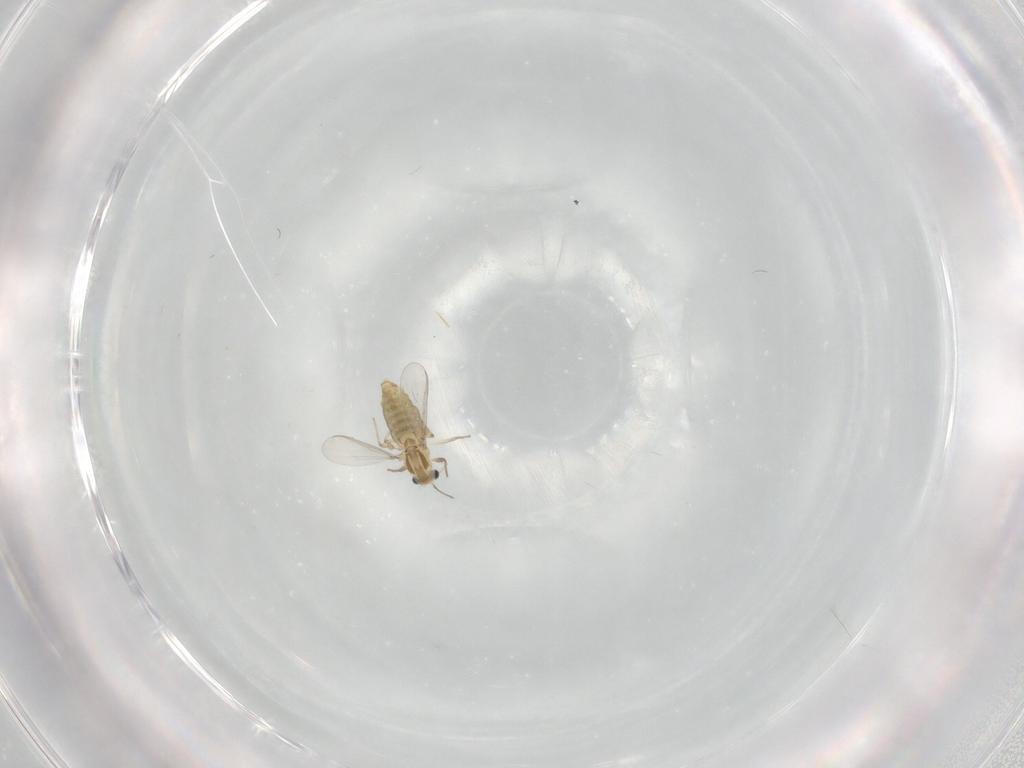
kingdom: Animalia
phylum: Arthropoda
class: Insecta
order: Diptera
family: Chironomidae
